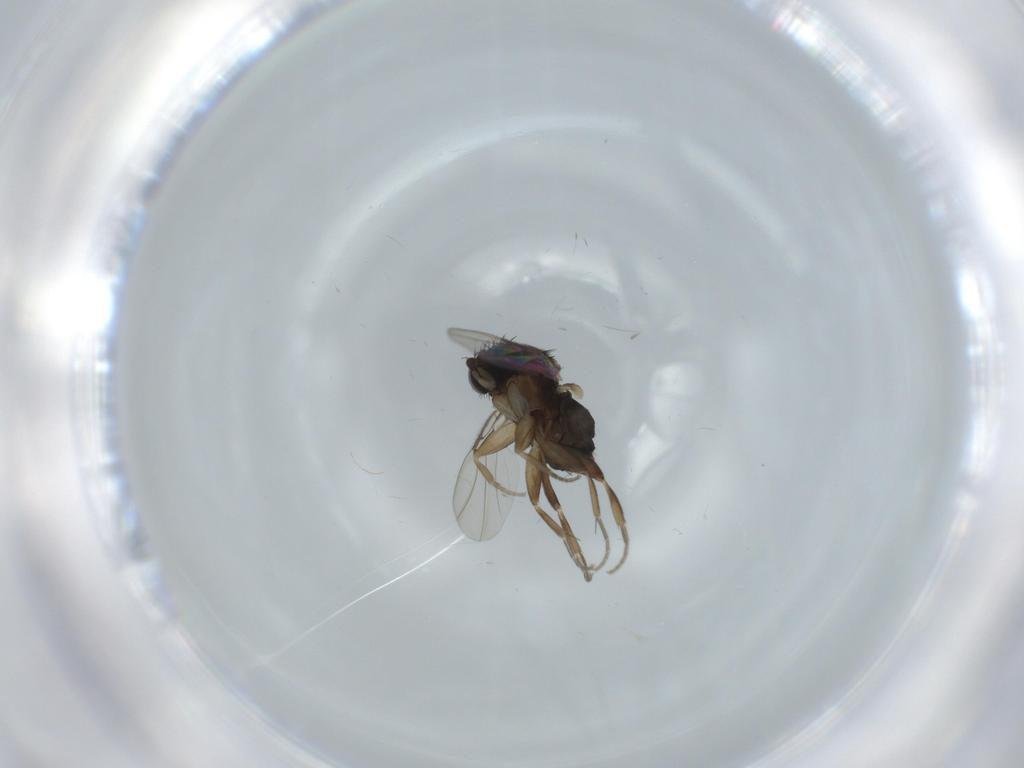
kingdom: Animalia
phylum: Arthropoda
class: Insecta
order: Diptera
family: Phoridae
